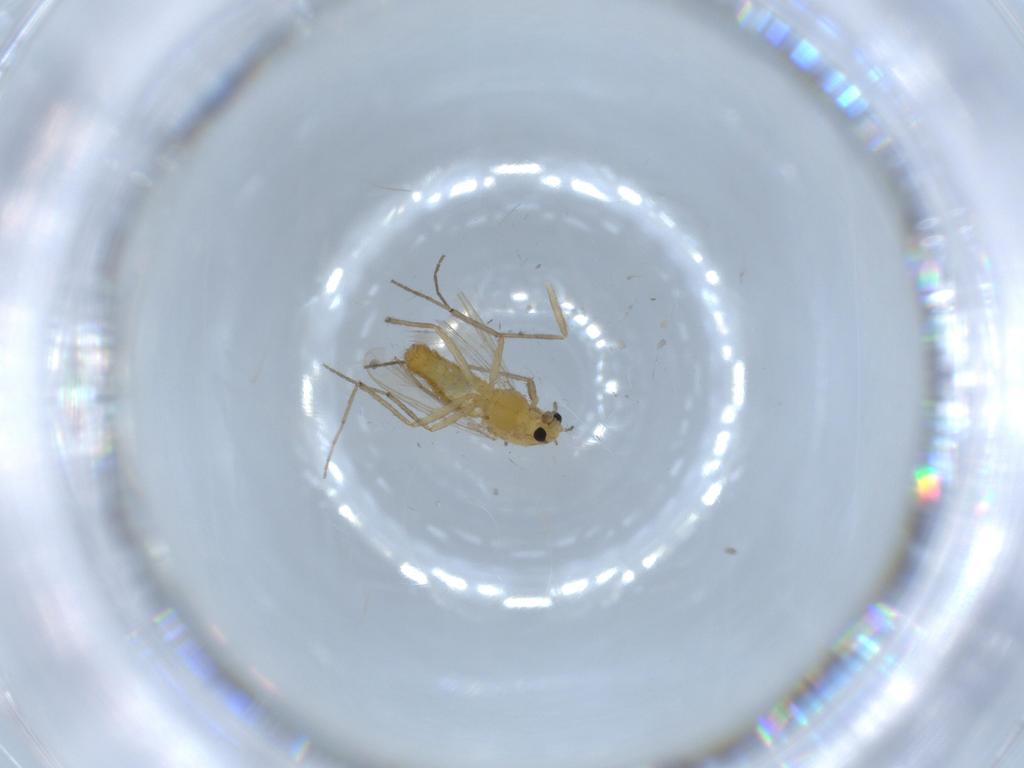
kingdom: Animalia
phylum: Arthropoda
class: Insecta
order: Diptera
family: Chironomidae
